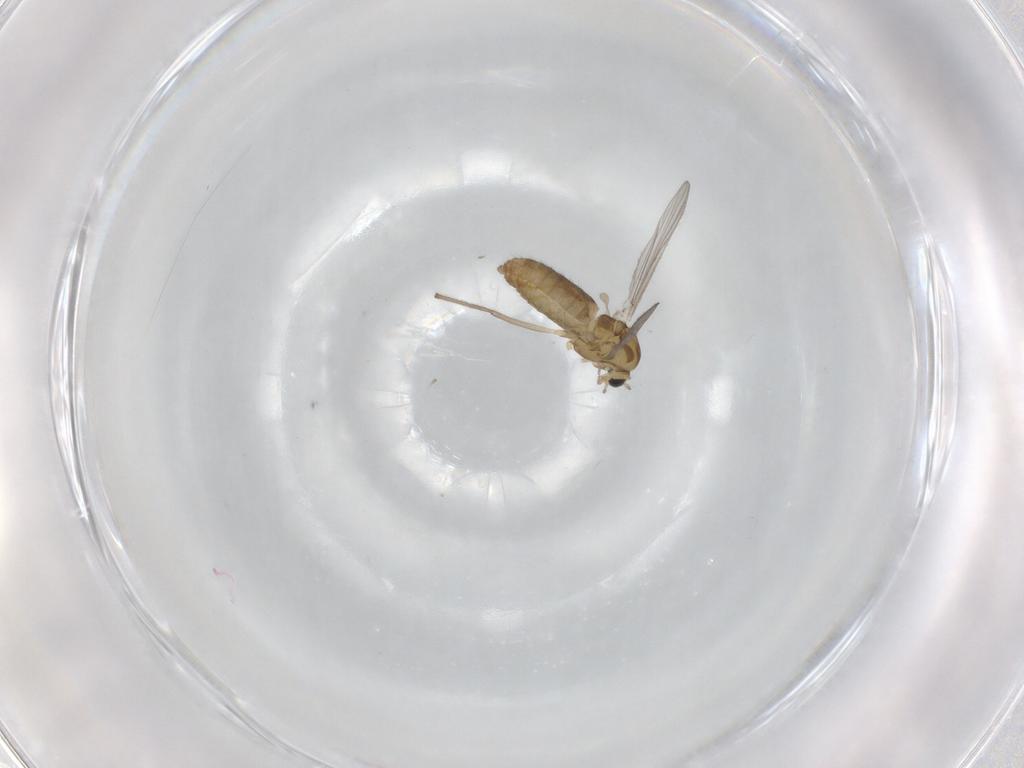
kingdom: Animalia
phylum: Arthropoda
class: Insecta
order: Diptera
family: Chironomidae
